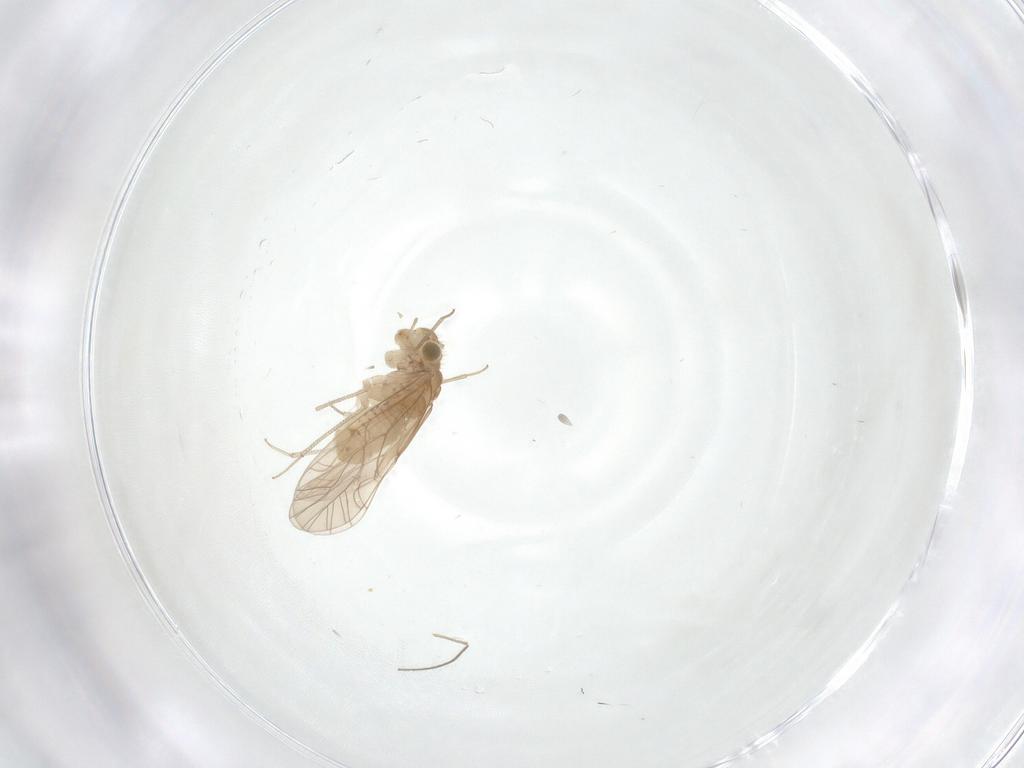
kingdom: Animalia
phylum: Arthropoda
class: Insecta
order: Psocodea
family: Lachesillidae
